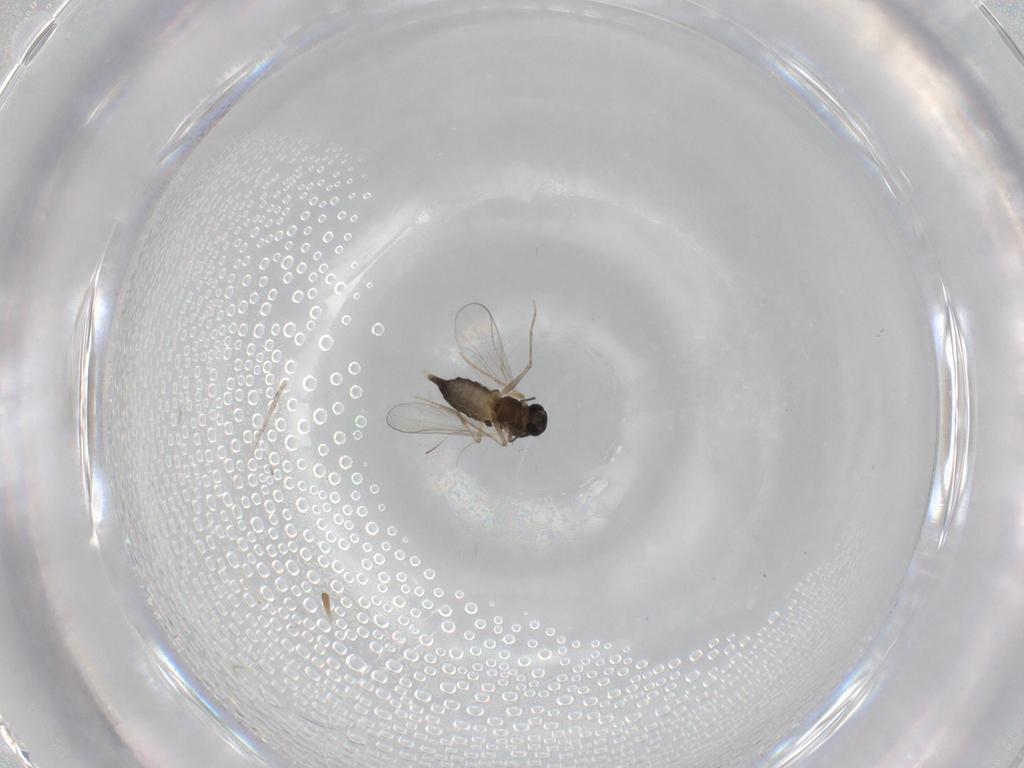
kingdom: Animalia
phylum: Arthropoda
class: Insecta
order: Diptera
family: Chironomidae
